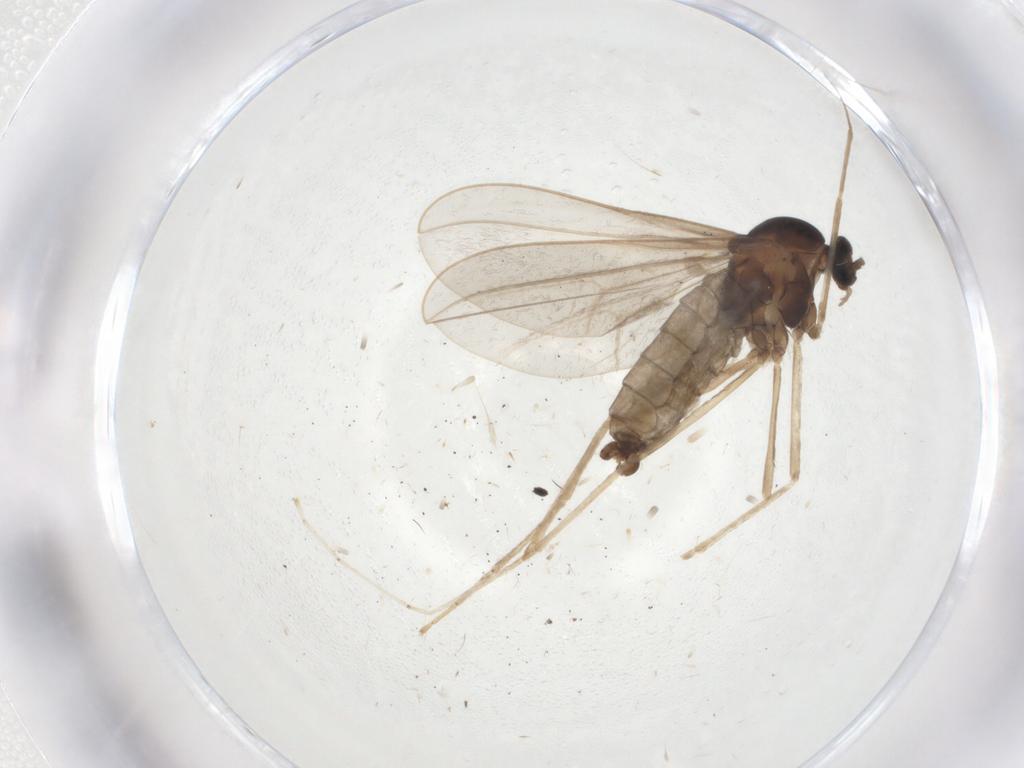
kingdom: Animalia
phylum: Arthropoda
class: Insecta
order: Diptera
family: Cecidomyiidae
